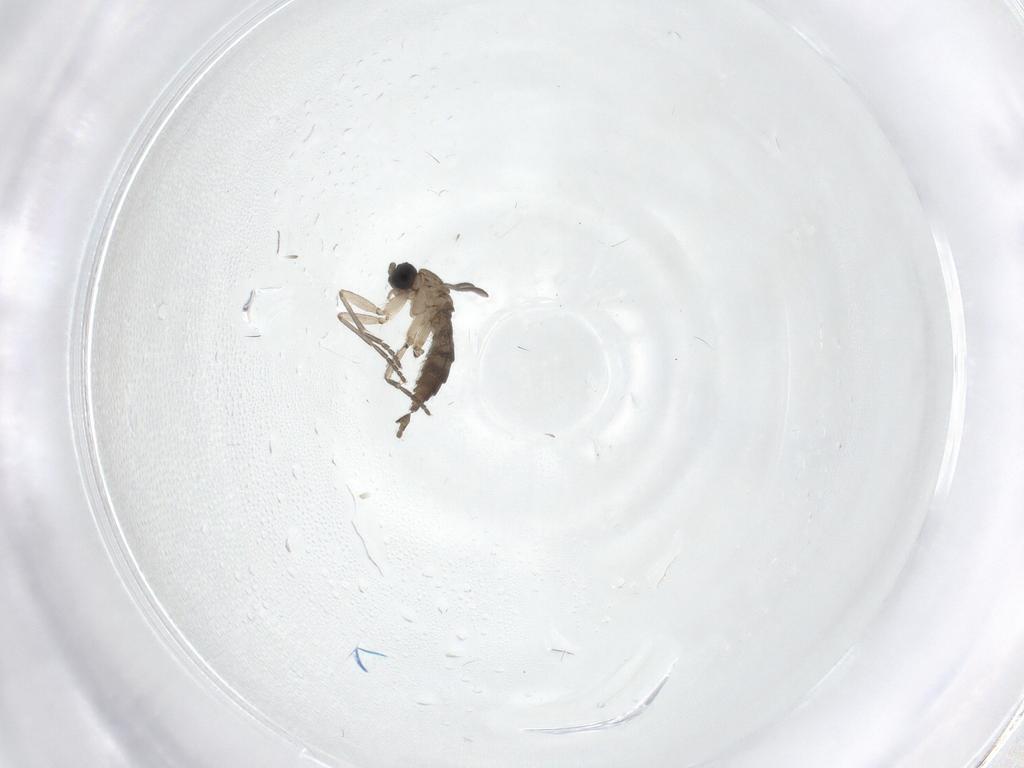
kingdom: Animalia
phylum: Arthropoda
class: Insecta
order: Diptera
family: Sciaridae
